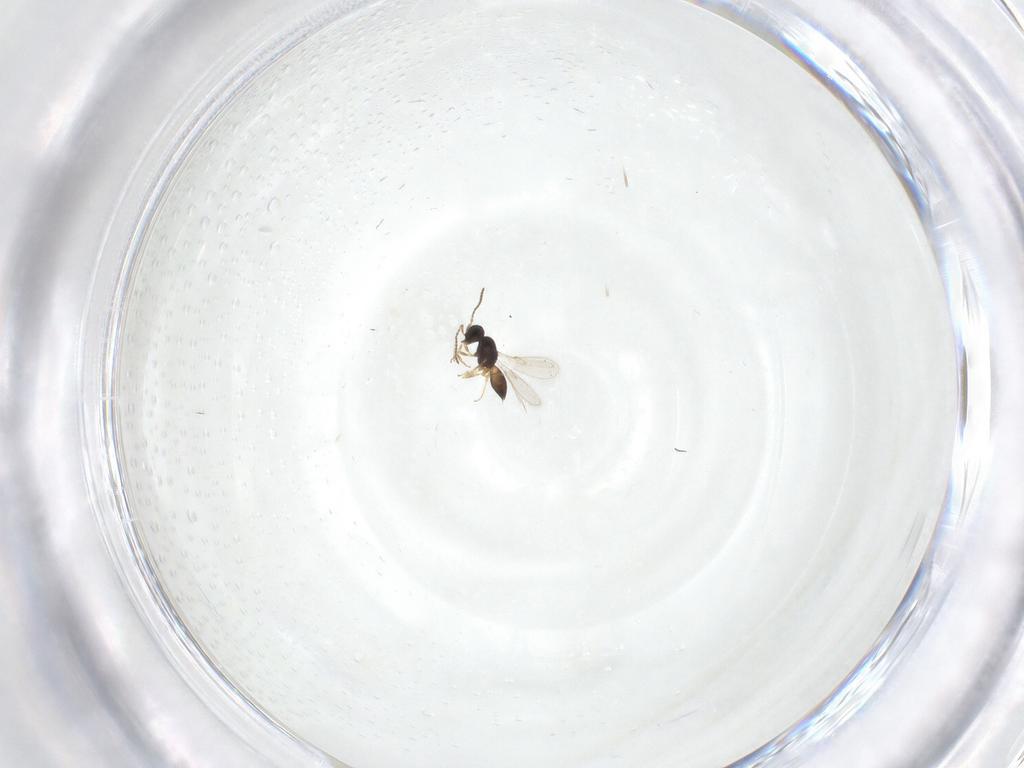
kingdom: Animalia
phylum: Arthropoda
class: Insecta
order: Hymenoptera
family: Scelionidae
